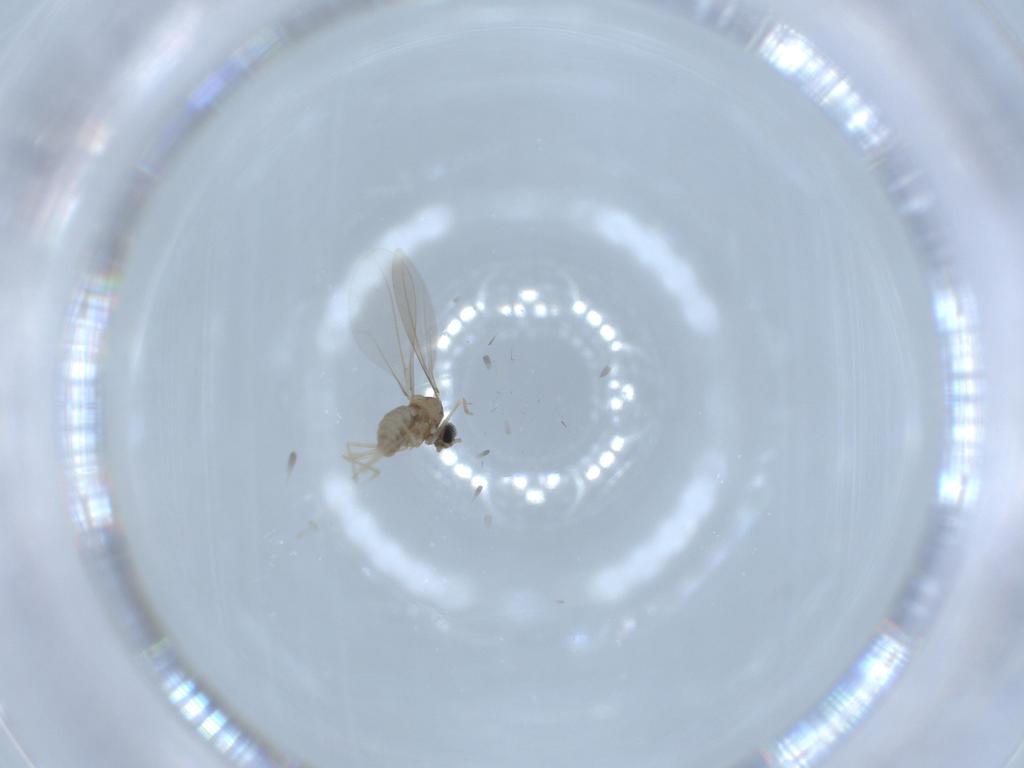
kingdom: Animalia
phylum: Arthropoda
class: Insecta
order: Diptera
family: Cecidomyiidae
